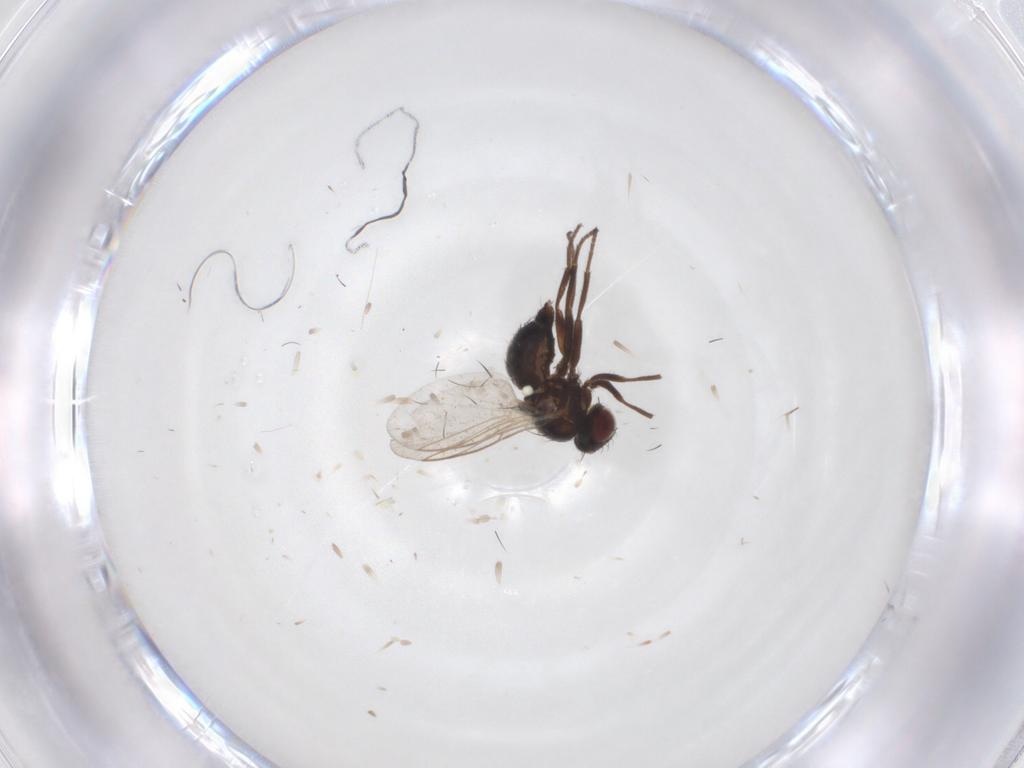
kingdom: Animalia
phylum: Arthropoda
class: Insecta
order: Diptera
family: Agromyzidae
